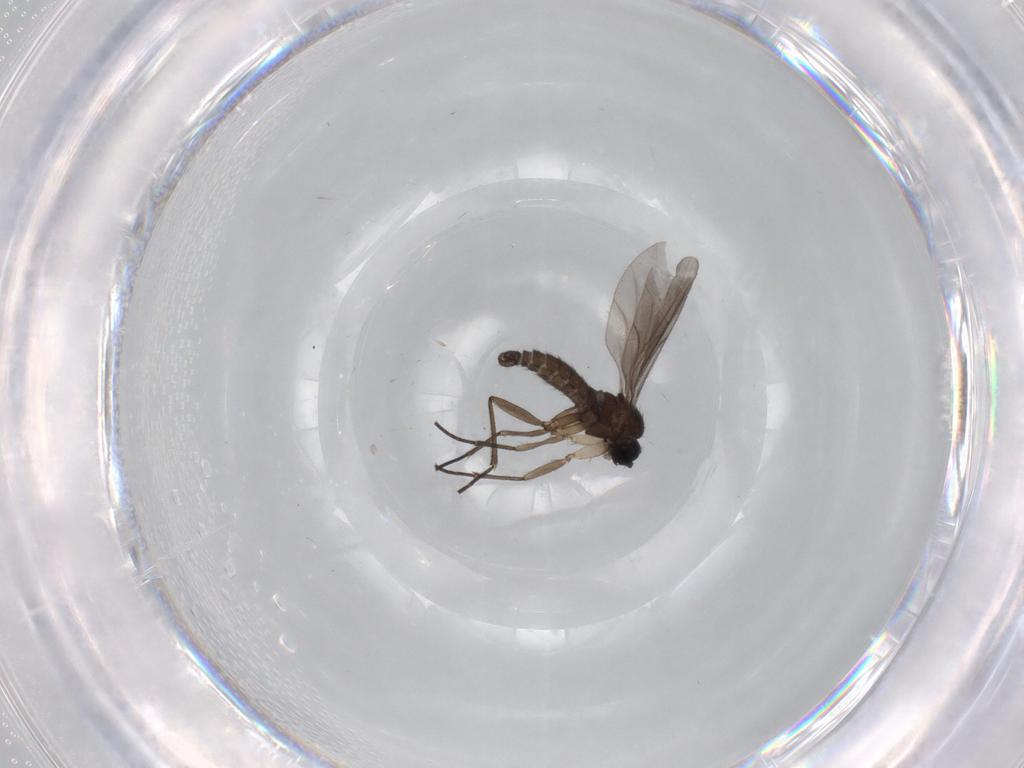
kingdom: Animalia
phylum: Arthropoda
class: Insecta
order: Diptera
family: Sciaridae
